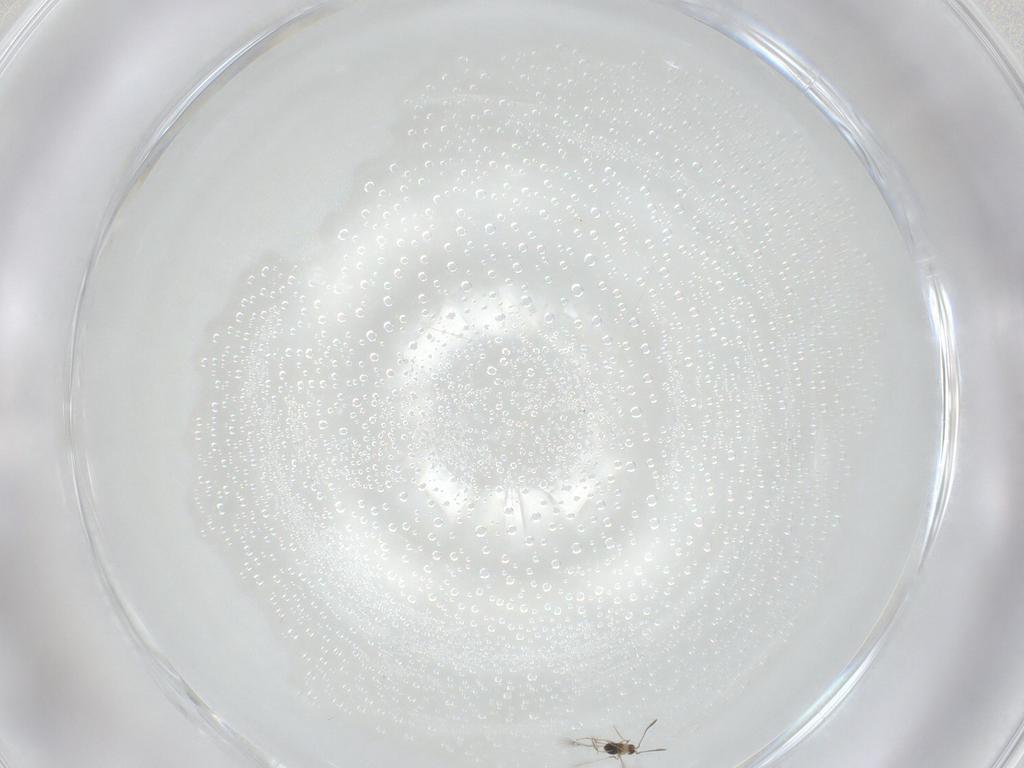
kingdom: Animalia
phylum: Arthropoda
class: Insecta
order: Hymenoptera
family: Mymaridae
